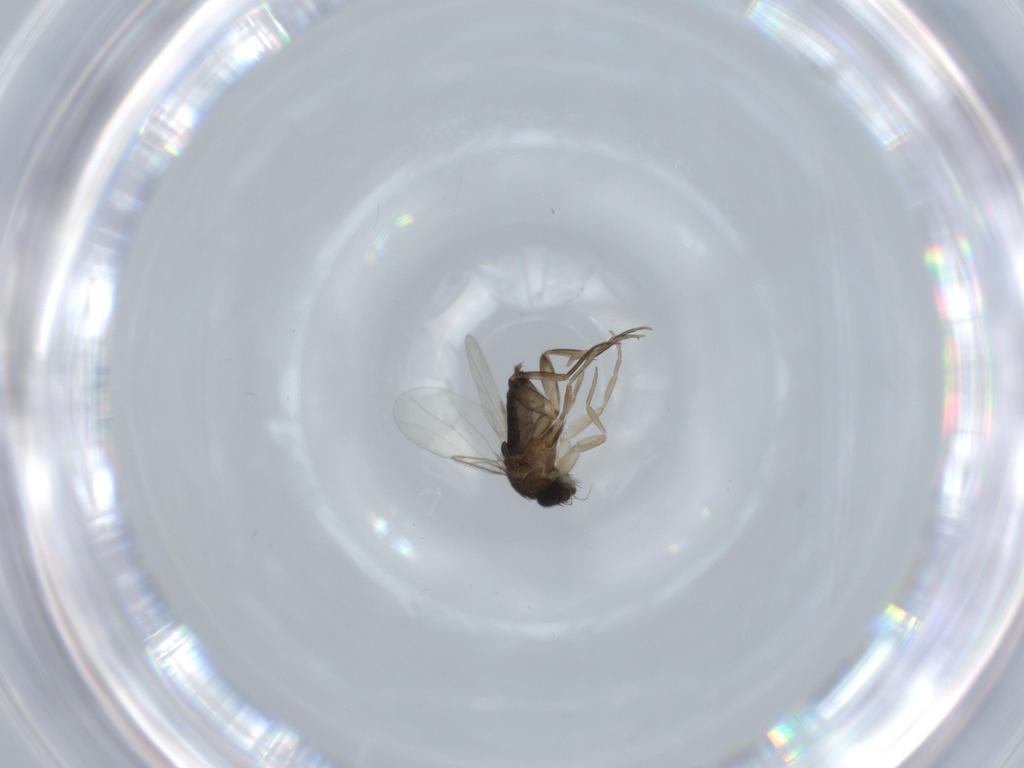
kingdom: Animalia
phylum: Arthropoda
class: Insecta
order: Diptera
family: Phoridae
